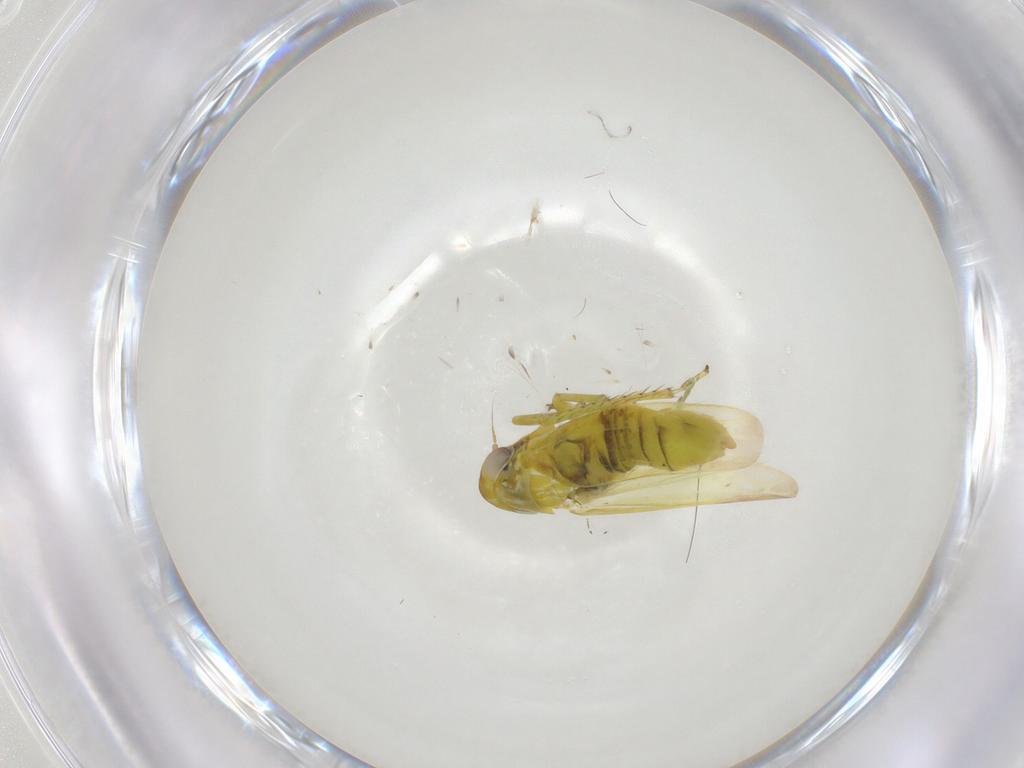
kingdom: Animalia
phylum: Arthropoda
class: Insecta
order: Hemiptera
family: Cicadellidae
